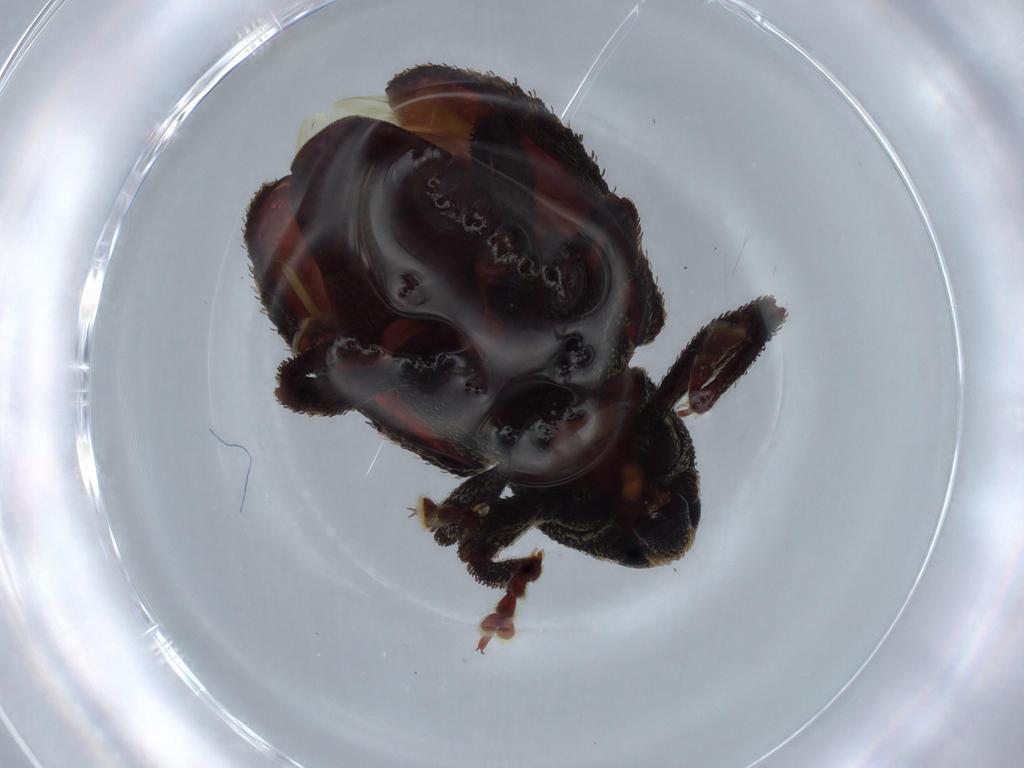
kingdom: Animalia
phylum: Arthropoda
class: Insecta
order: Coleoptera
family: Curculionidae
